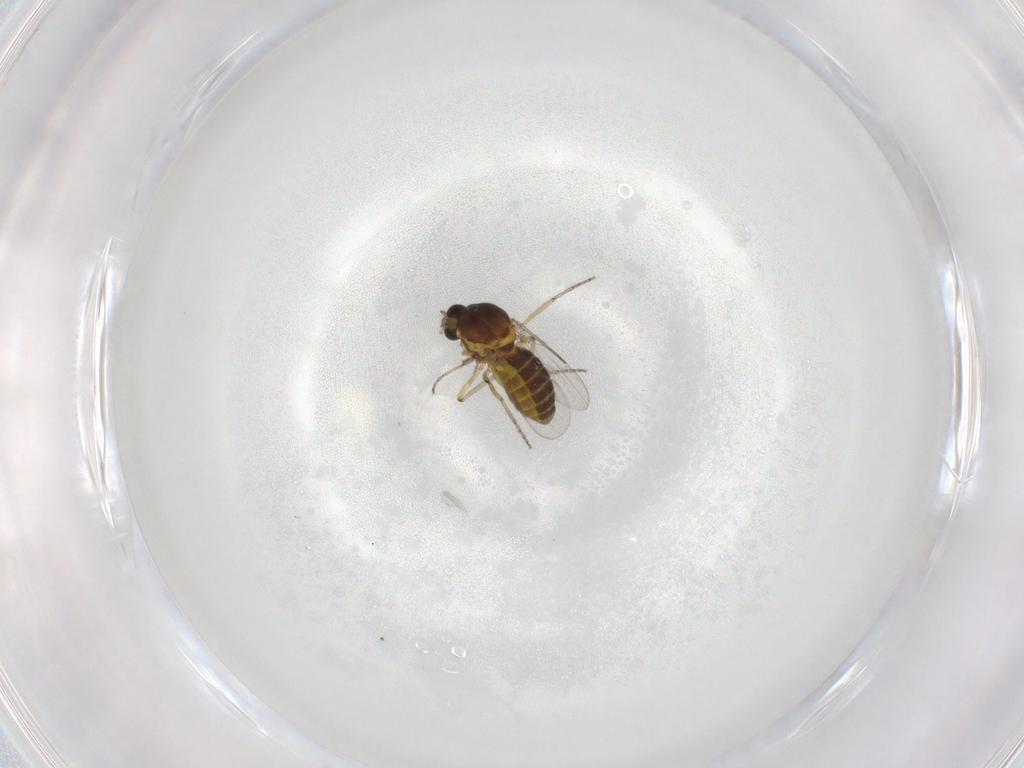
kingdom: Animalia
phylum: Arthropoda
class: Insecta
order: Diptera
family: Ceratopogonidae
